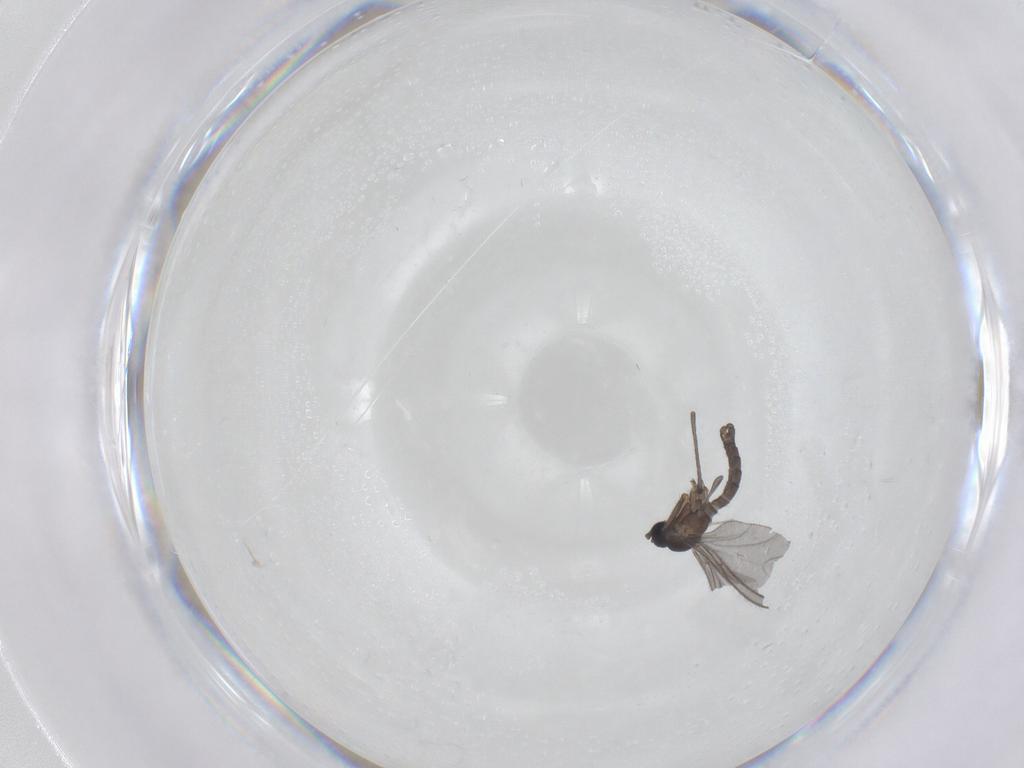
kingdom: Animalia
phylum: Arthropoda
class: Insecta
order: Diptera
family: Sciaridae
